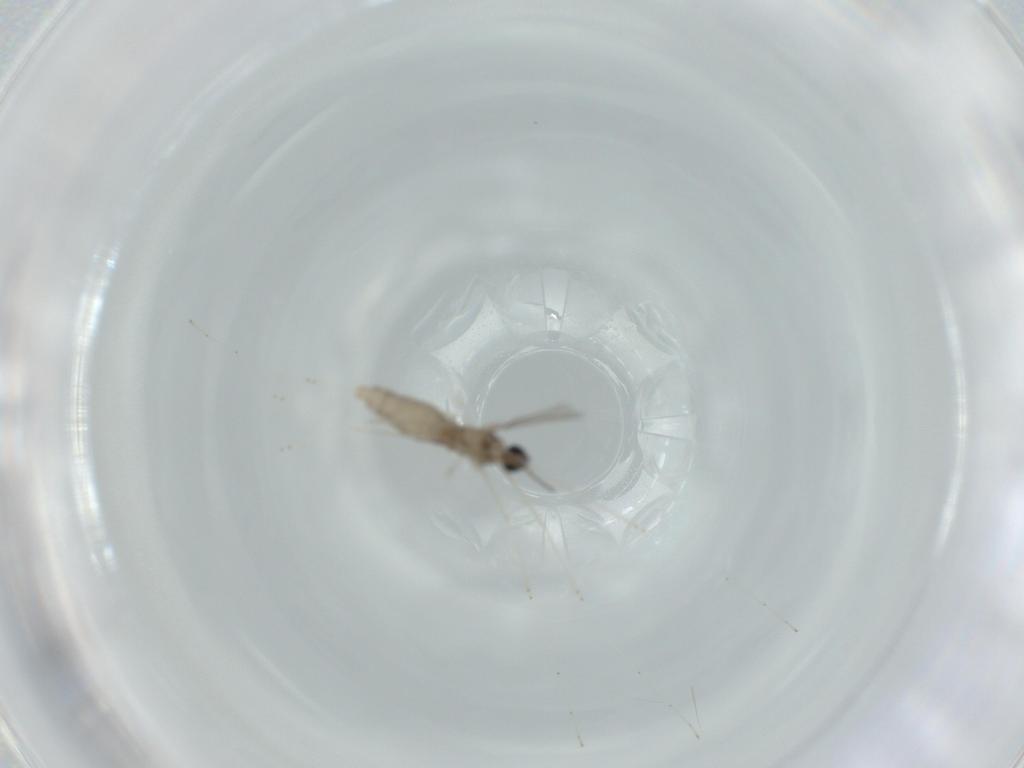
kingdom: Animalia
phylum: Arthropoda
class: Insecta
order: Diptera
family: Cecidomyiidae
